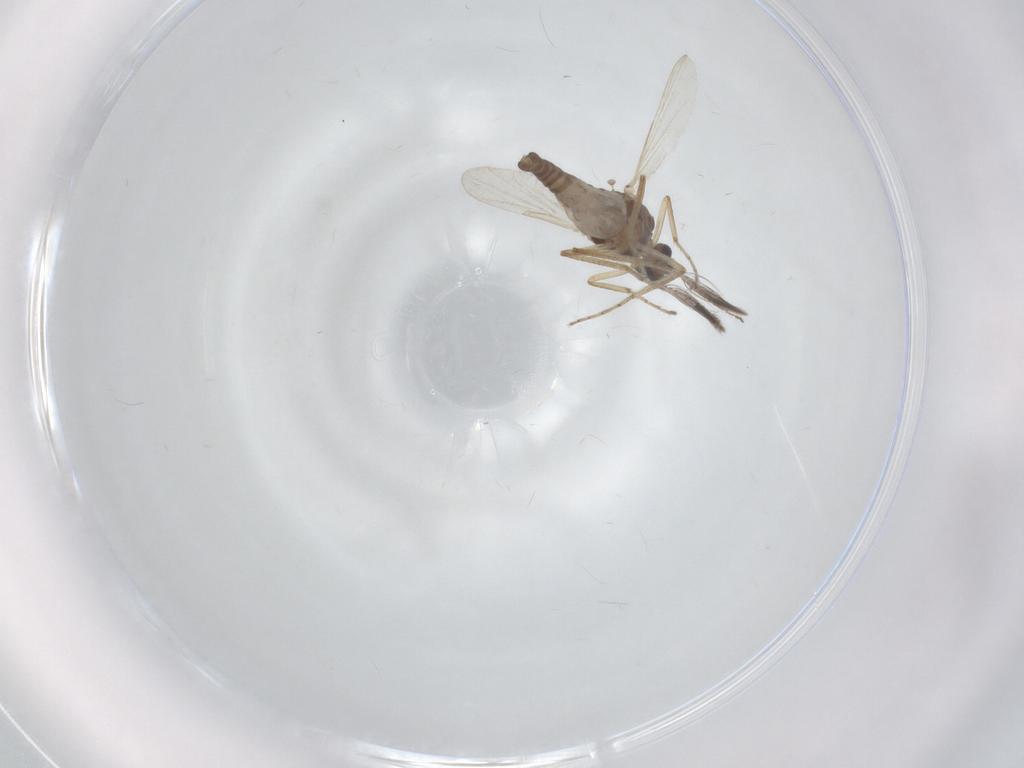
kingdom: Animalia
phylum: Arthropoda
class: Insecta
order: Diptera
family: Ceratopogonidae
